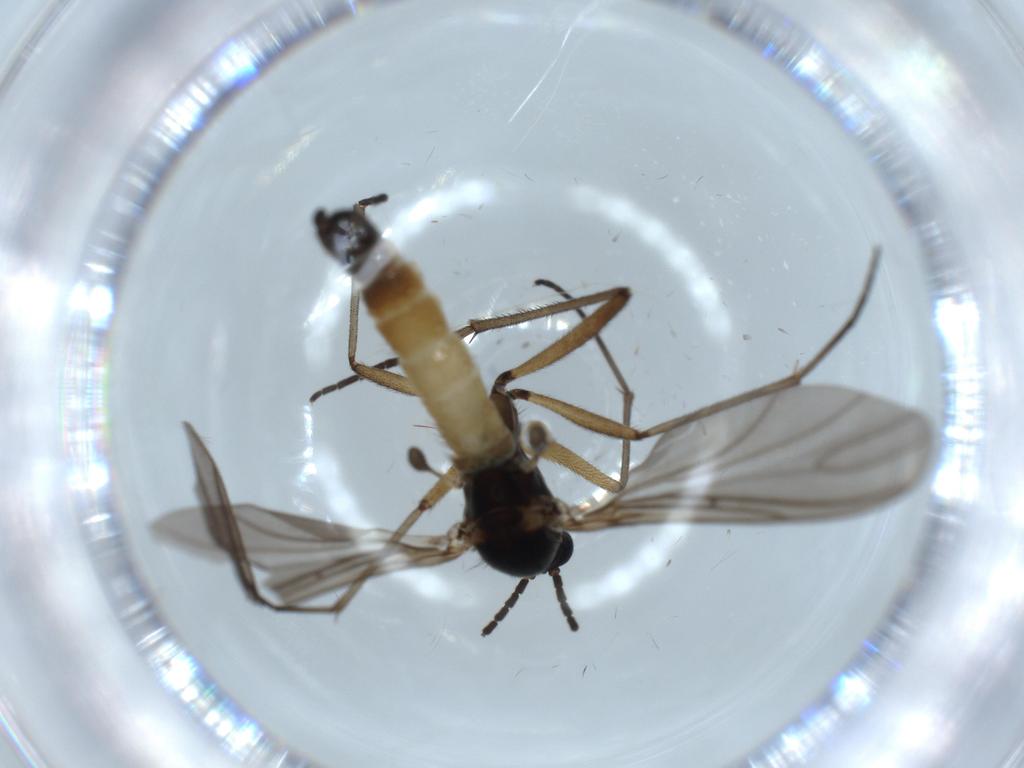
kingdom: Animalia
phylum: Arthropoda
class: Insecta
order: Diptera
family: Sciaridae
